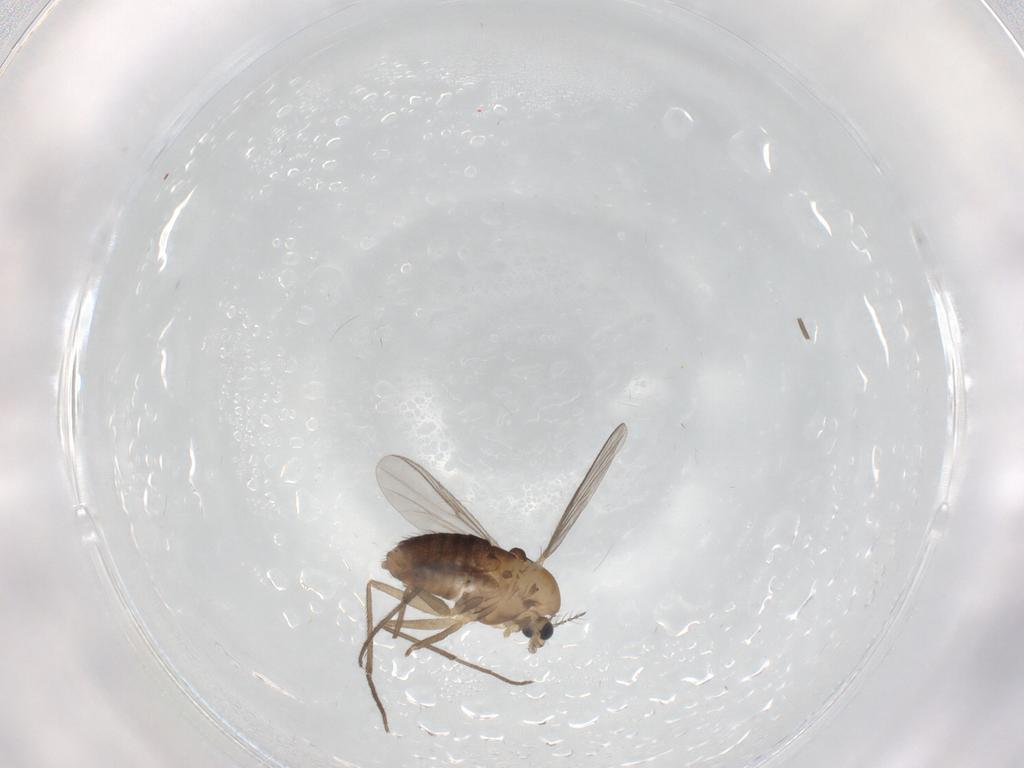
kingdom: Animalia
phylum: Arthropoda
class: Insecta
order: Diptera
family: Chironomidae
